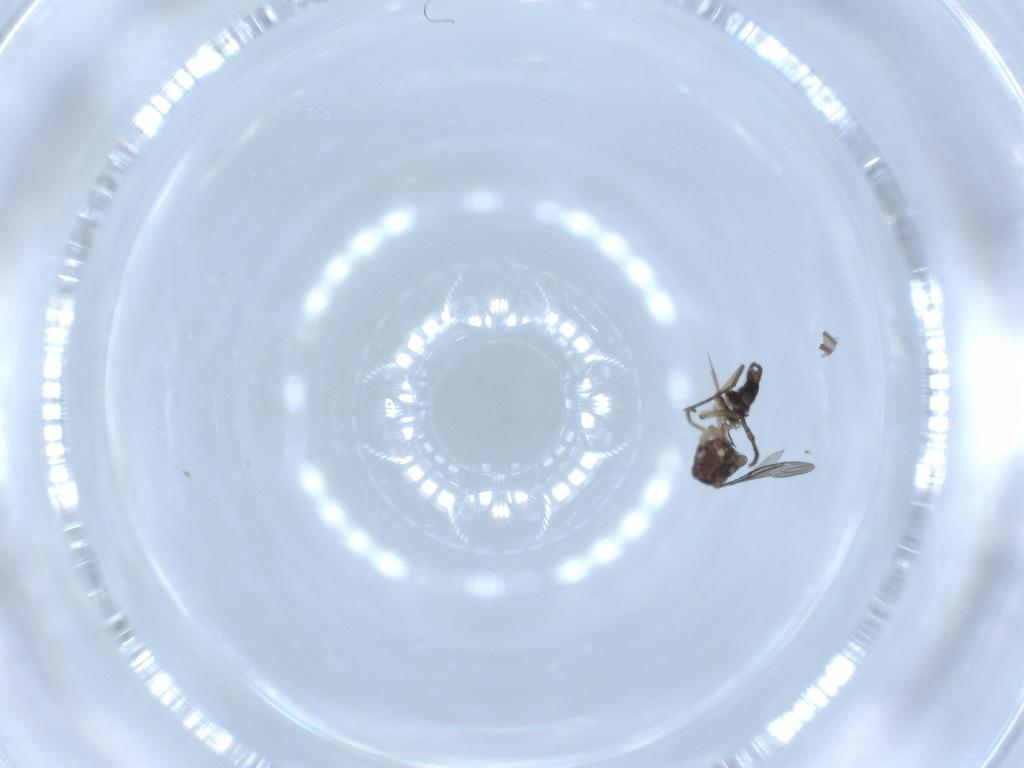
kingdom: Animalia
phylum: Arthropoda
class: Insecta
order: Diptera
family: Sciaridae
